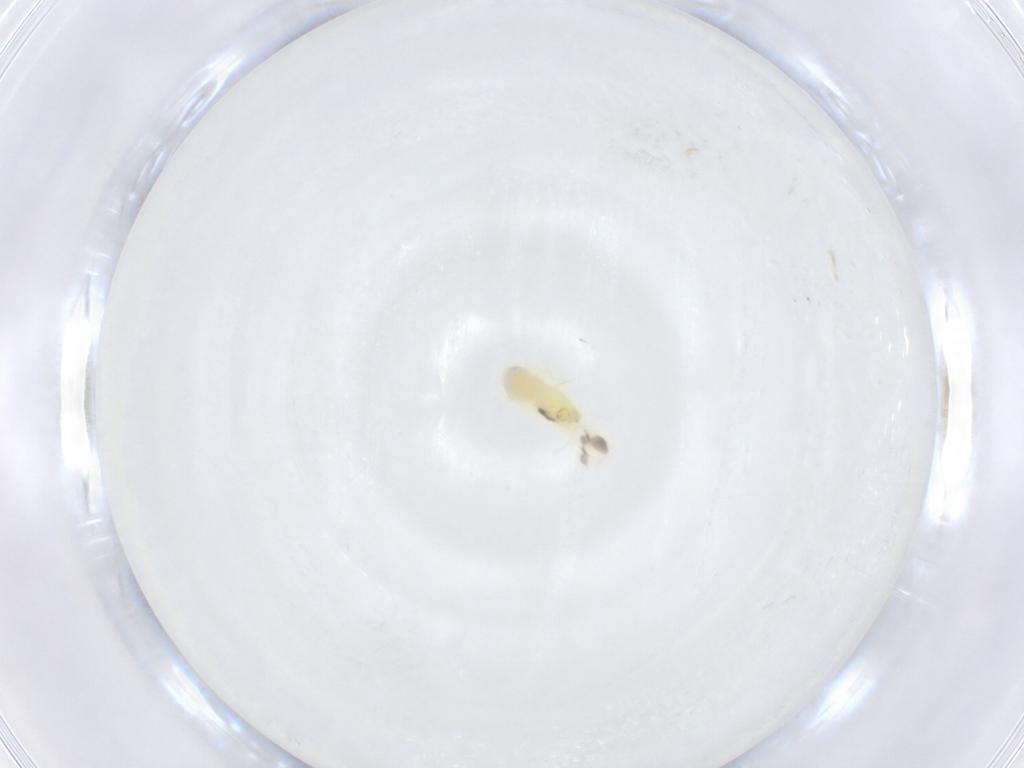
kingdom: Animalia
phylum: Arthropoda
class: Insecta
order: Hemiptera
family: Aleyrodidae
